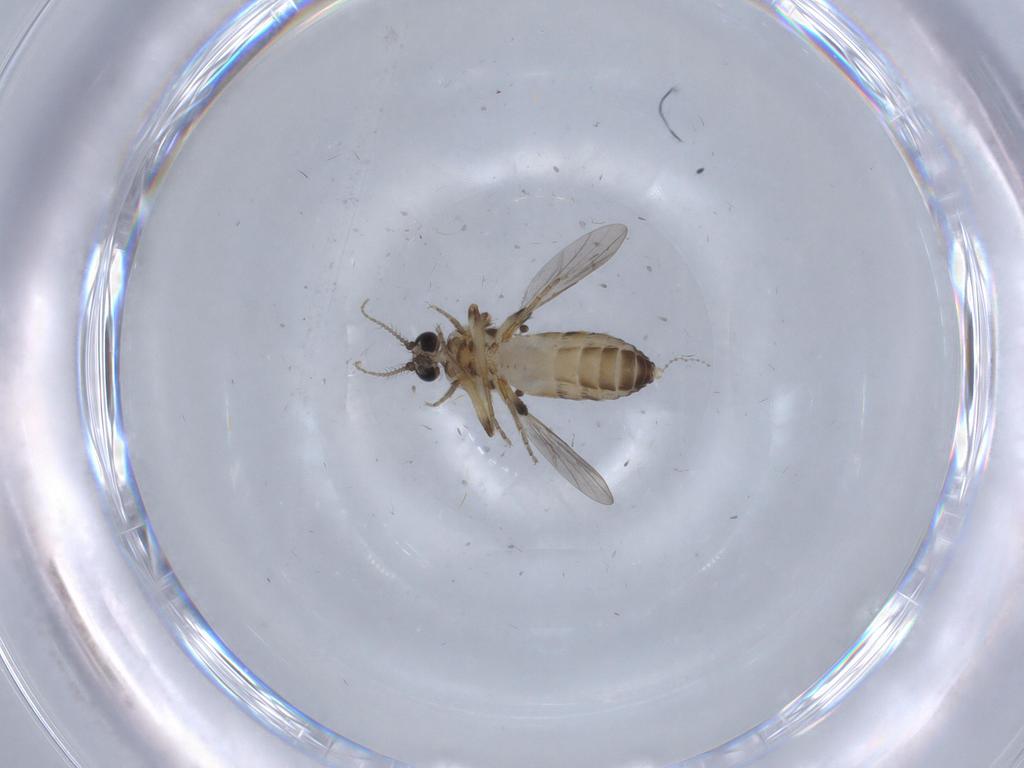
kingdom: Animalia
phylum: Arthropoda
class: Insecta
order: Diptera
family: Ceratopogonidae
